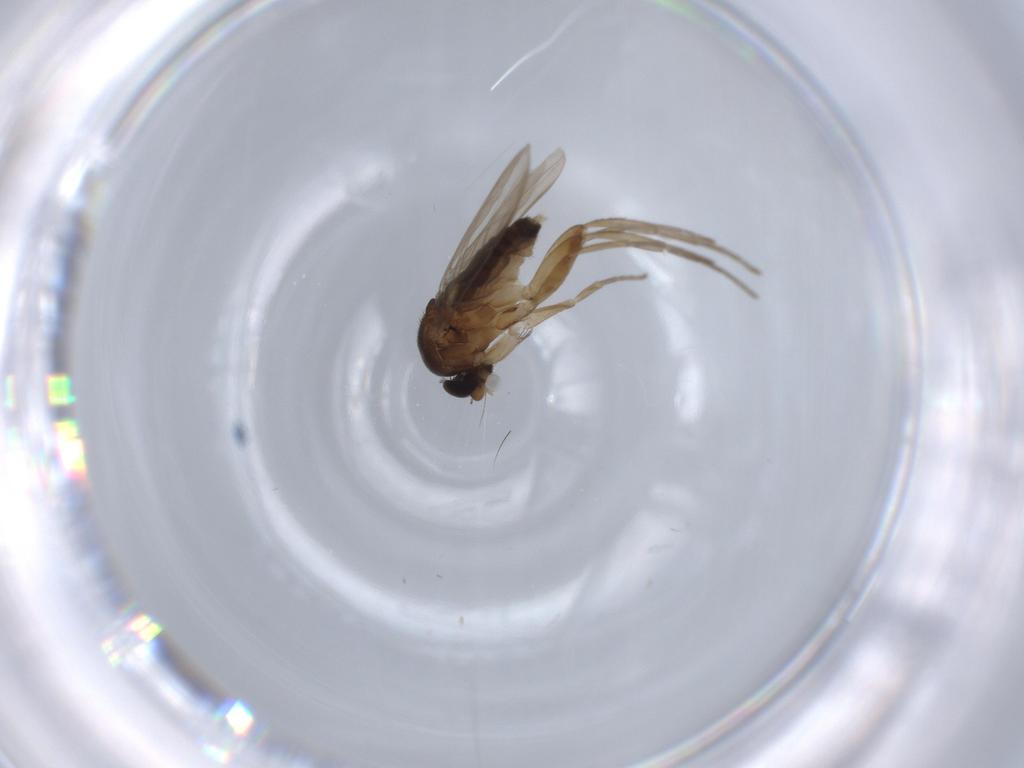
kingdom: Animalia
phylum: Arthropoda
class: Insecta
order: Diptera
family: Phoridae
